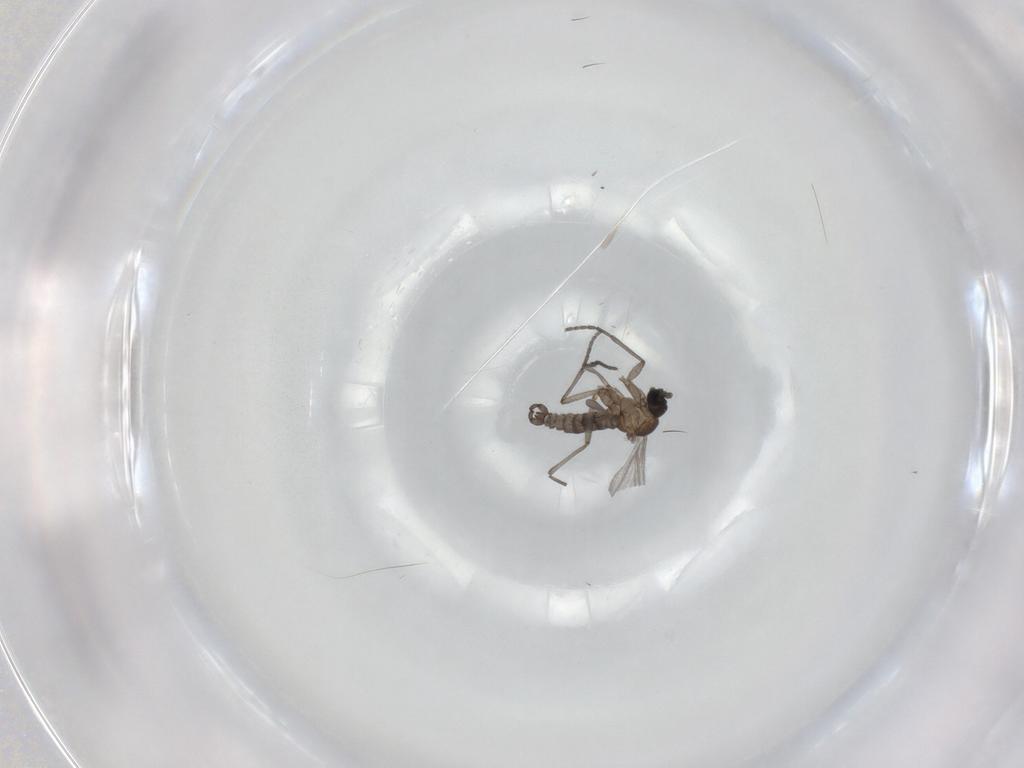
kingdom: Animalia
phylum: Arthropoda
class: Insecta
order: Diptera
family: Sciaridae
